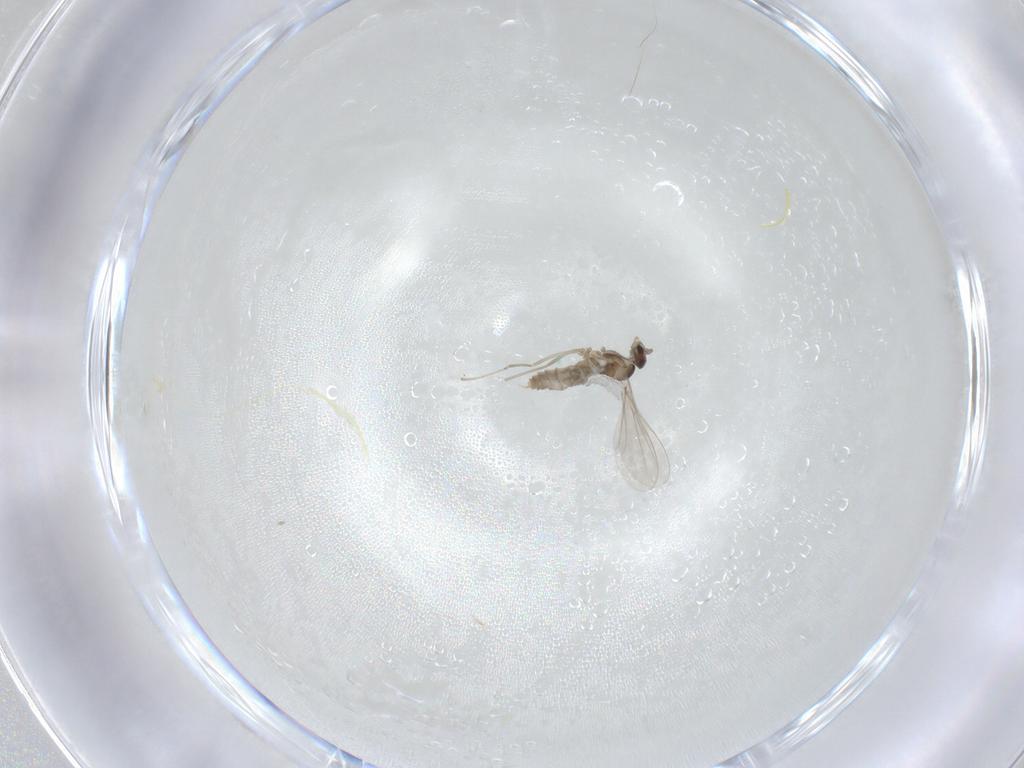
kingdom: Animalia
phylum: Arthropoda
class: Insecta
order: Diptera
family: Cecidomyiidae
